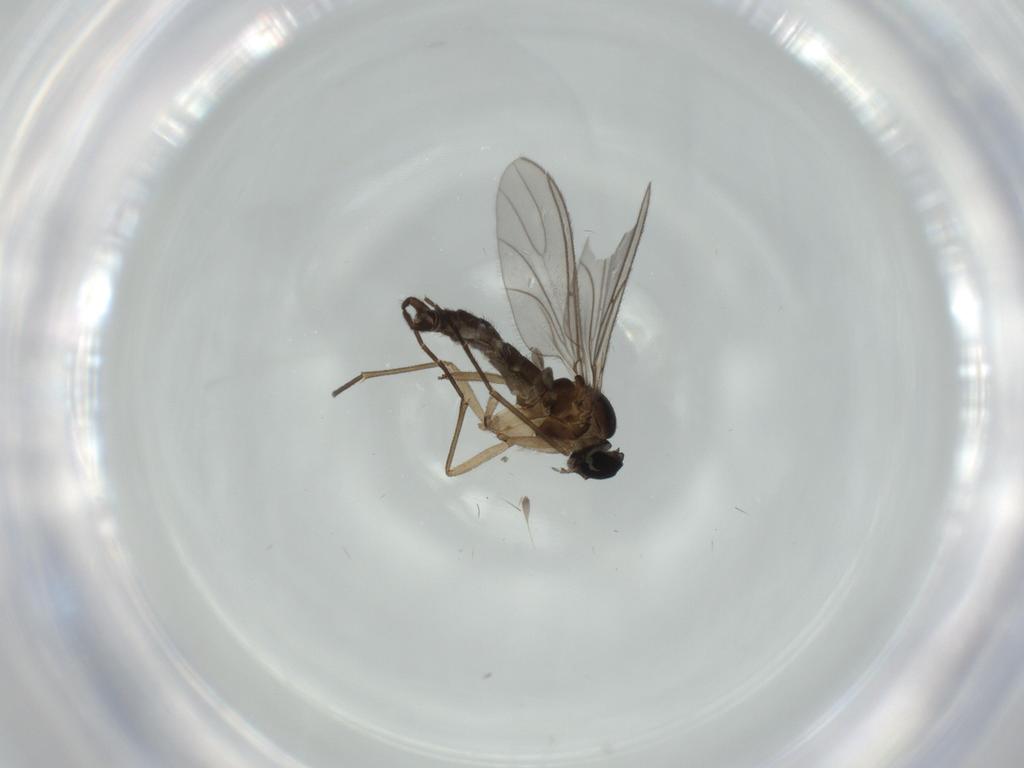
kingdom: Animalia
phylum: Arthropoda
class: Insecta
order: Diptera
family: Sciaridae
